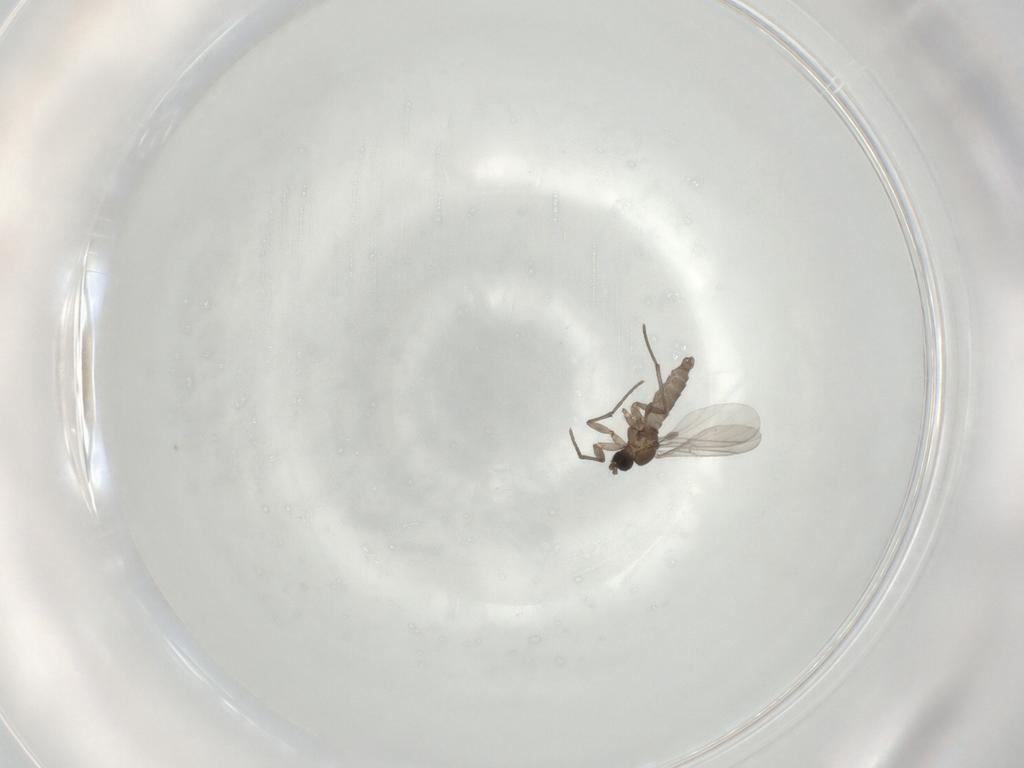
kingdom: Animalia
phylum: Arthropoda
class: Insecta
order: Diptera
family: Sciaridae
